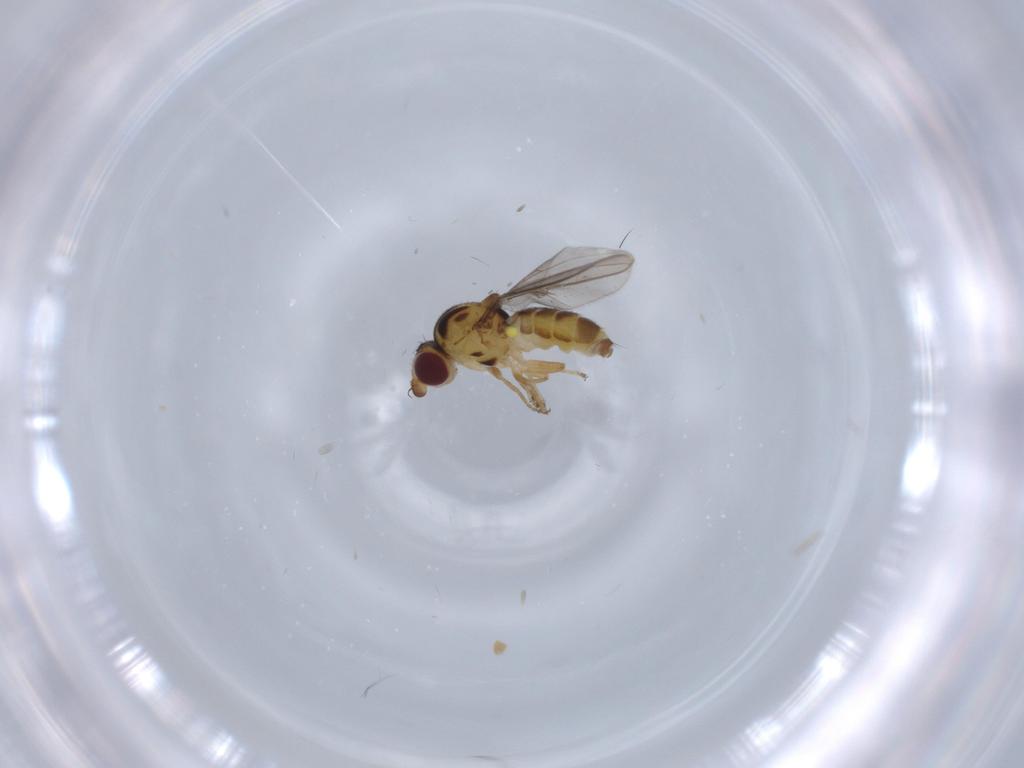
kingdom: Animalia
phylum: Arthropoda
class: Insecta
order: Diptera
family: Chloropidae
